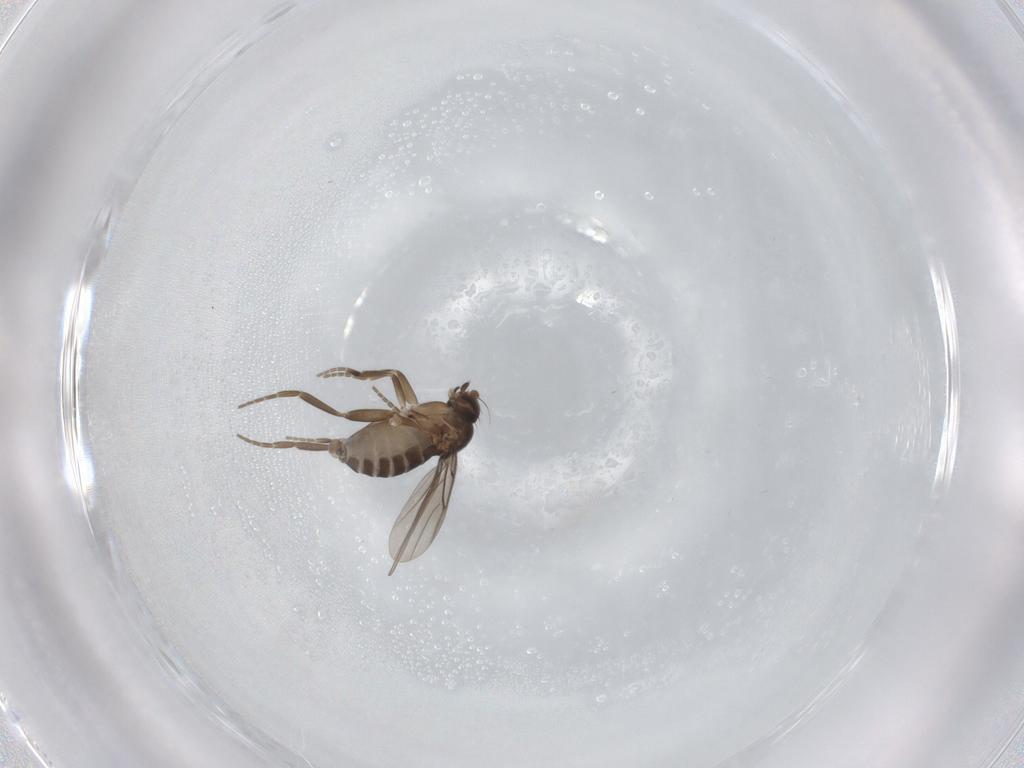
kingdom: Animalia
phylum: Arthropoda
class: Insecta
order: Diptera
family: Phoridae
